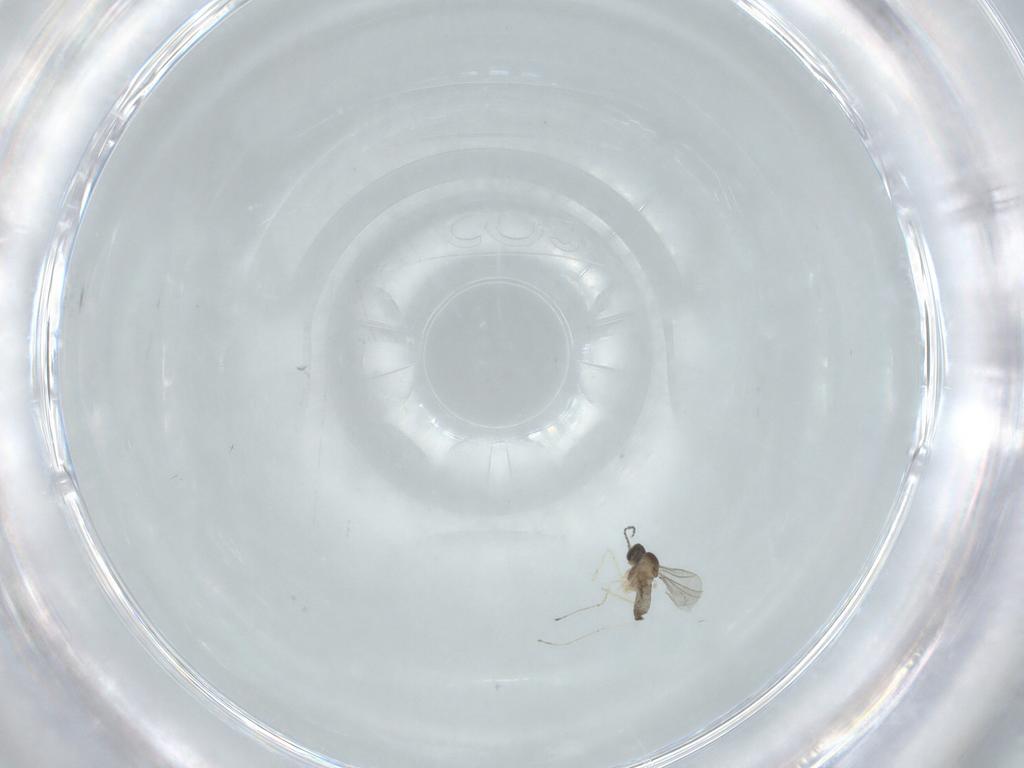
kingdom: Animalia
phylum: Arthropoda
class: Insecta
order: Diptera
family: Cecidomyiidae
